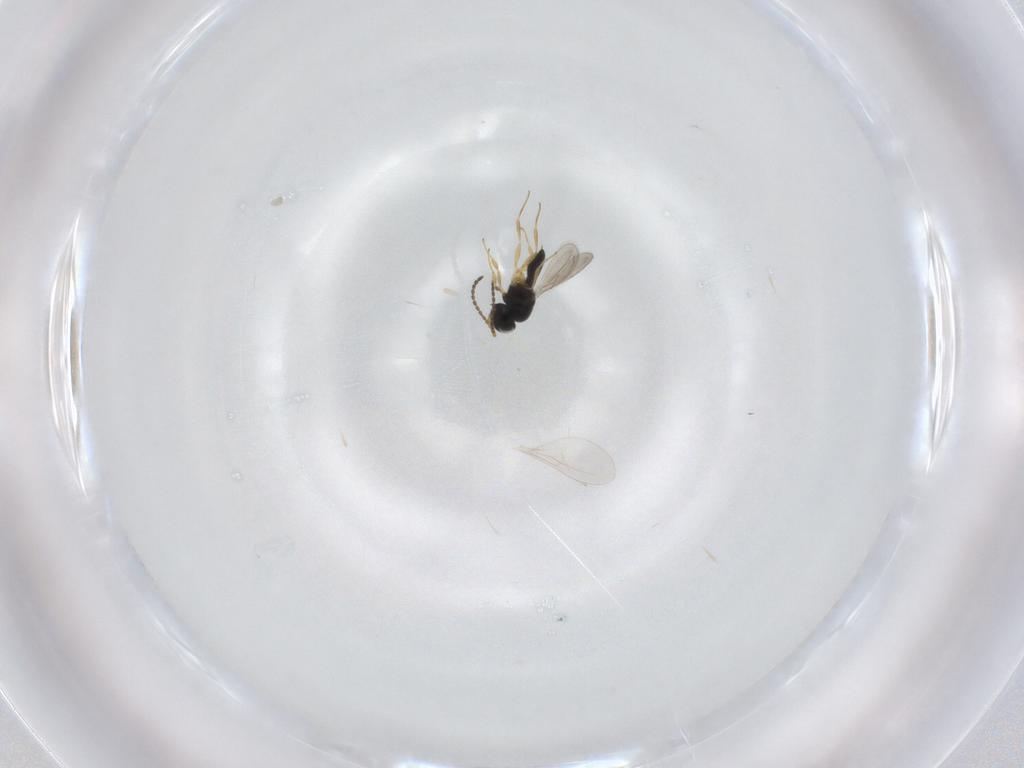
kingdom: Animalia
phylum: Arthropoda
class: Insecta
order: Hymenoptera
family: Scelionidae
